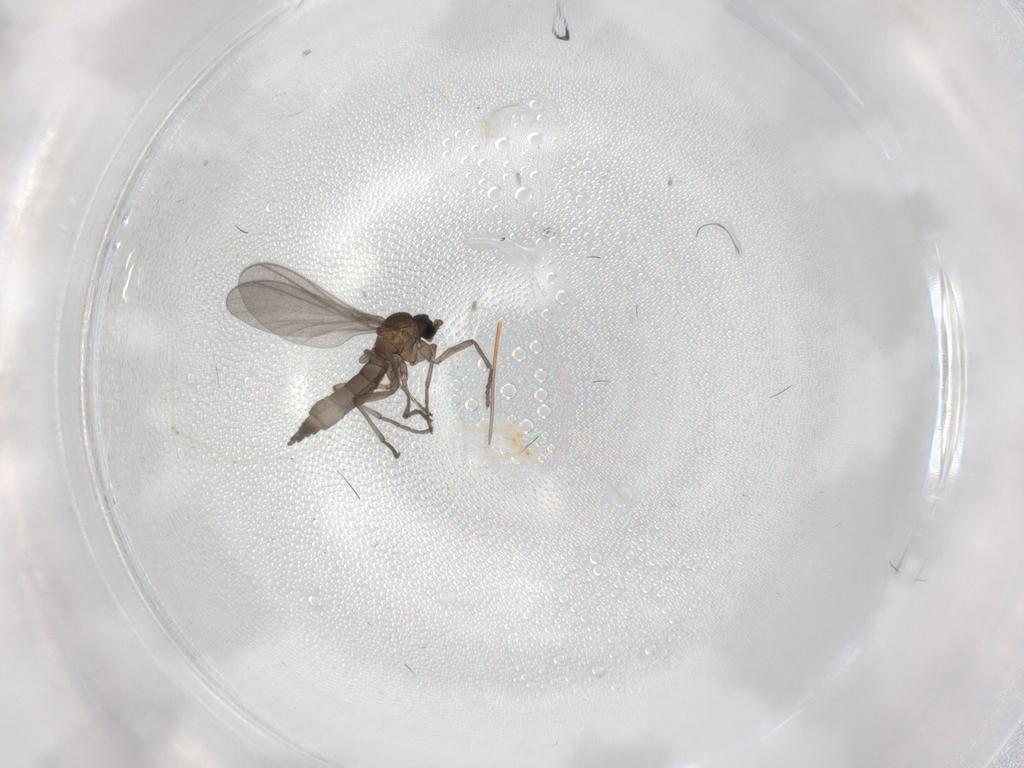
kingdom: Animalia
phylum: Arthropoda
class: Insecta
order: Diptera
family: Sciaridae
